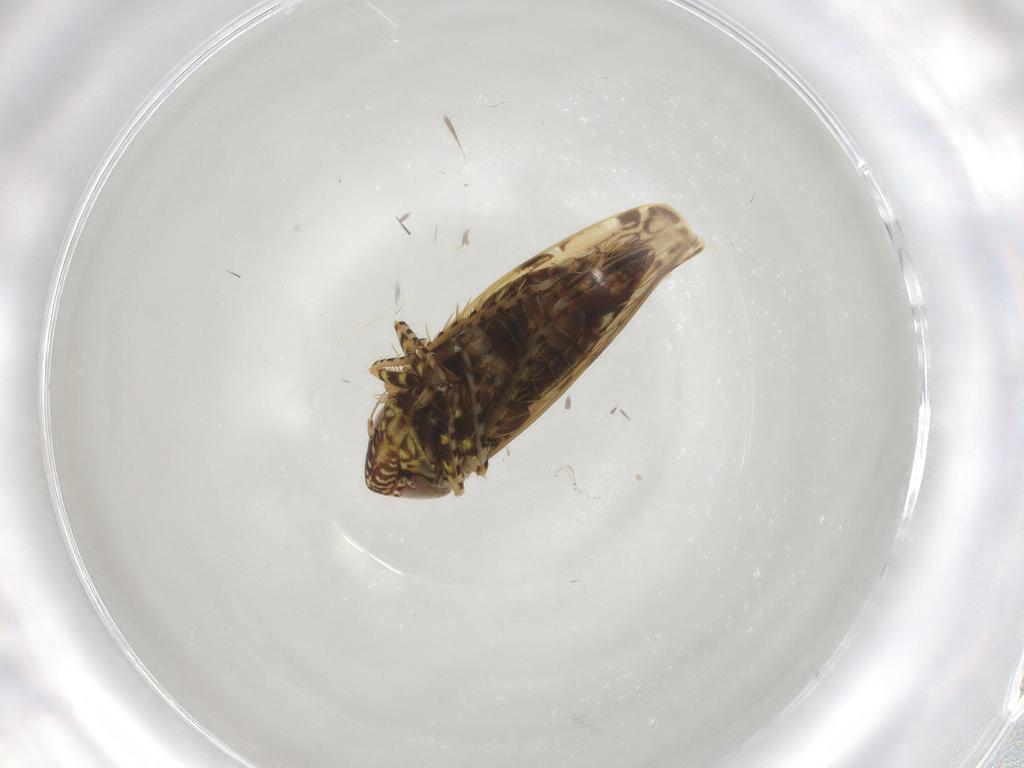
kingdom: Animalia
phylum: Arthropoda
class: Insecta
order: Hemiptera
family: Cicadellidae
